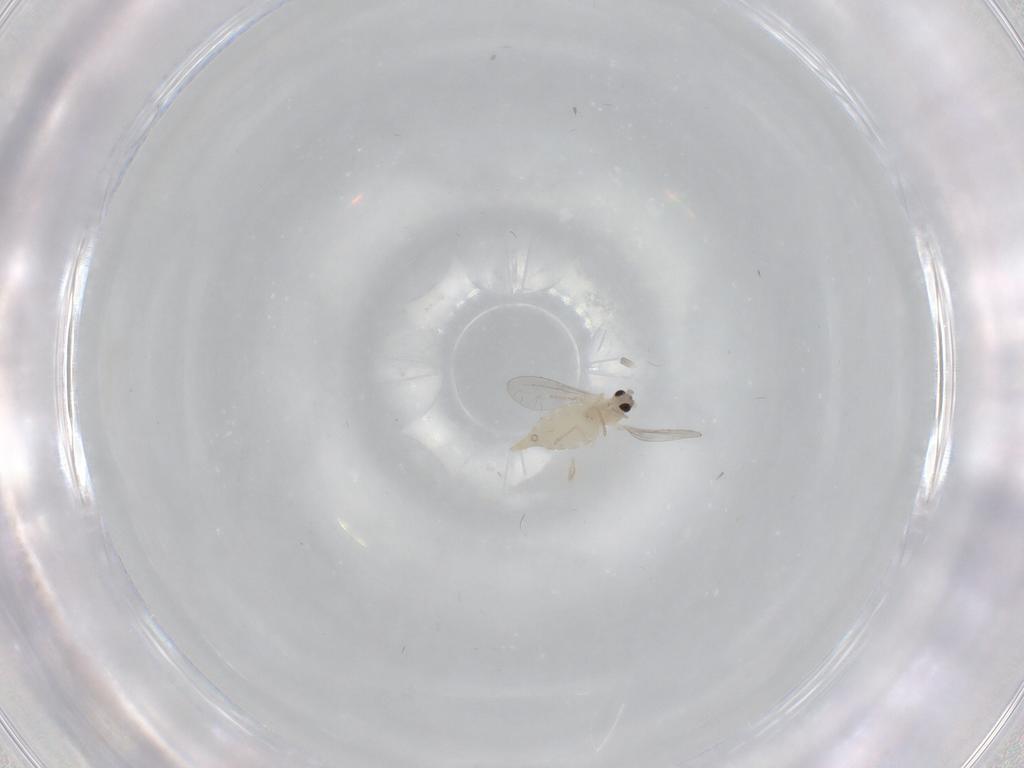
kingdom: Animalia
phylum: Arthropoda
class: Insecta
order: Diptera
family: Cecidomyiidae
